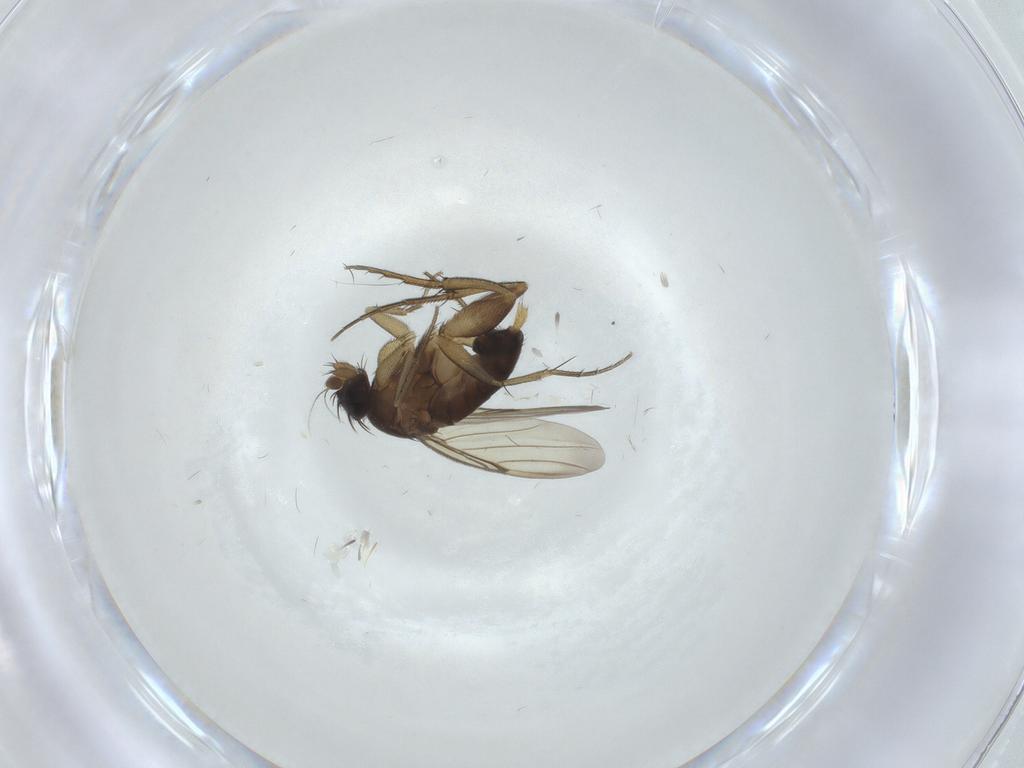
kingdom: Animalia
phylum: Arthropoda
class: Insecta
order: Diptera
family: Phoridae
